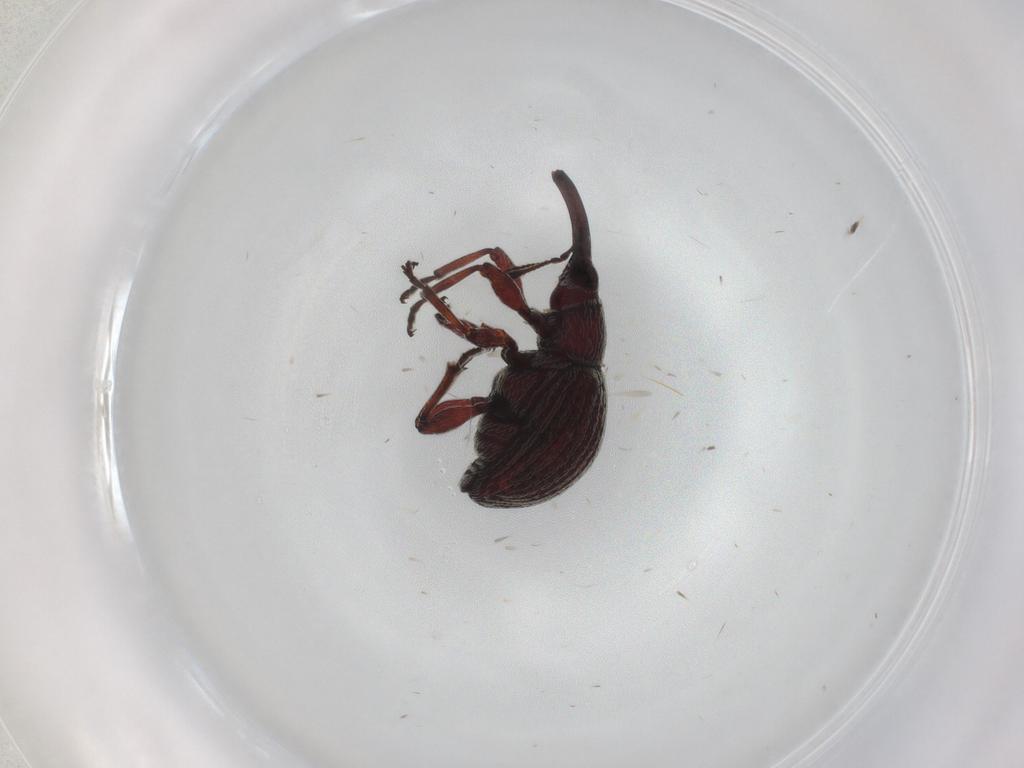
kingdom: Animalia
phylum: Arthropoda
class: Insecta
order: Coleoptera
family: Brentidae
